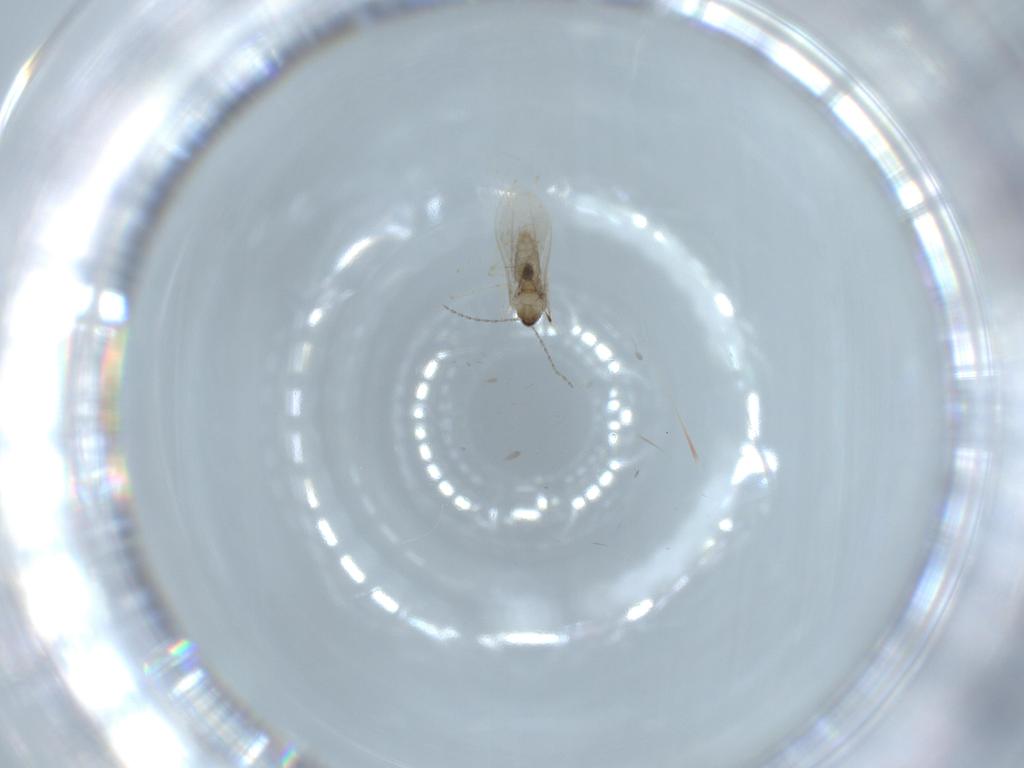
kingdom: Animalia
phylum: Arthropoda
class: Insecta
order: Diptera
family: Cecidomyiidae
